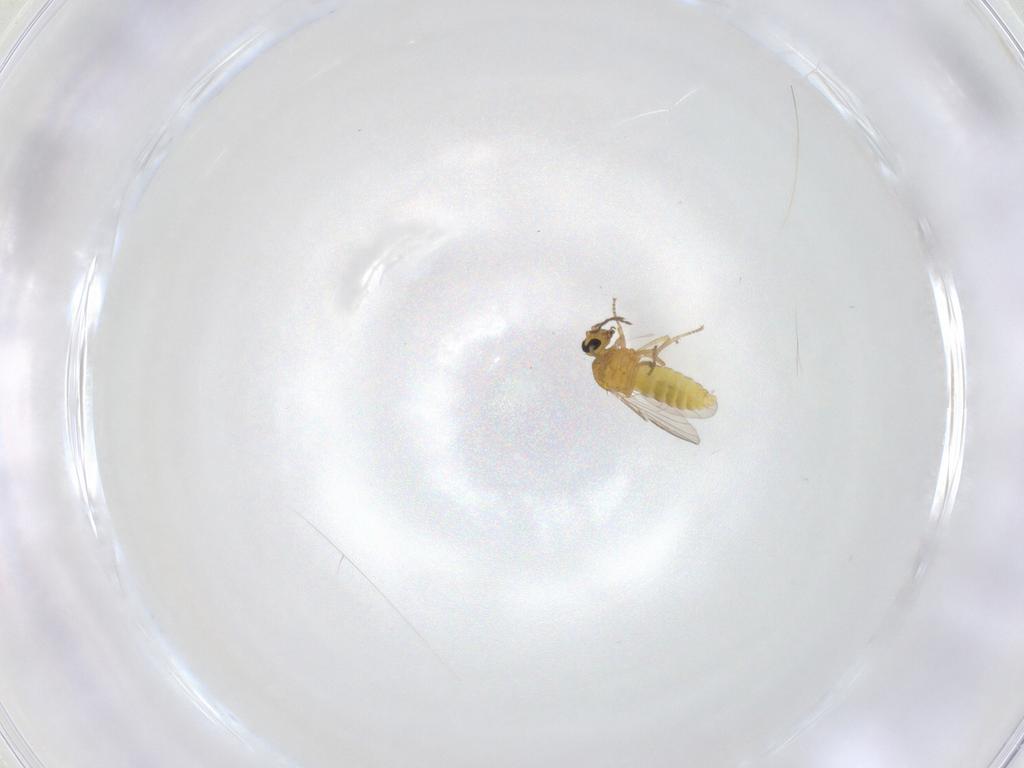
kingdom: Animalia
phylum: Arthropoda
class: Insecta
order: Diptera
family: Ceratopogonidae
